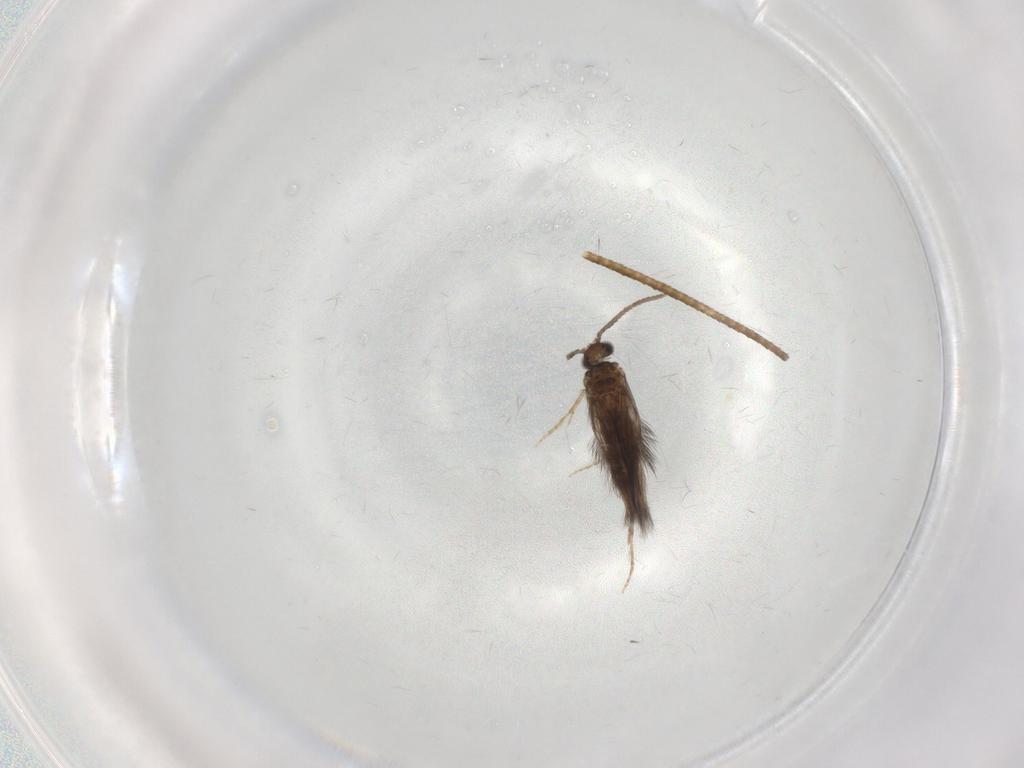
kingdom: Animalia
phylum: Arthropoda
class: Insecta
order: Trichoptera
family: Hydroptilidae
